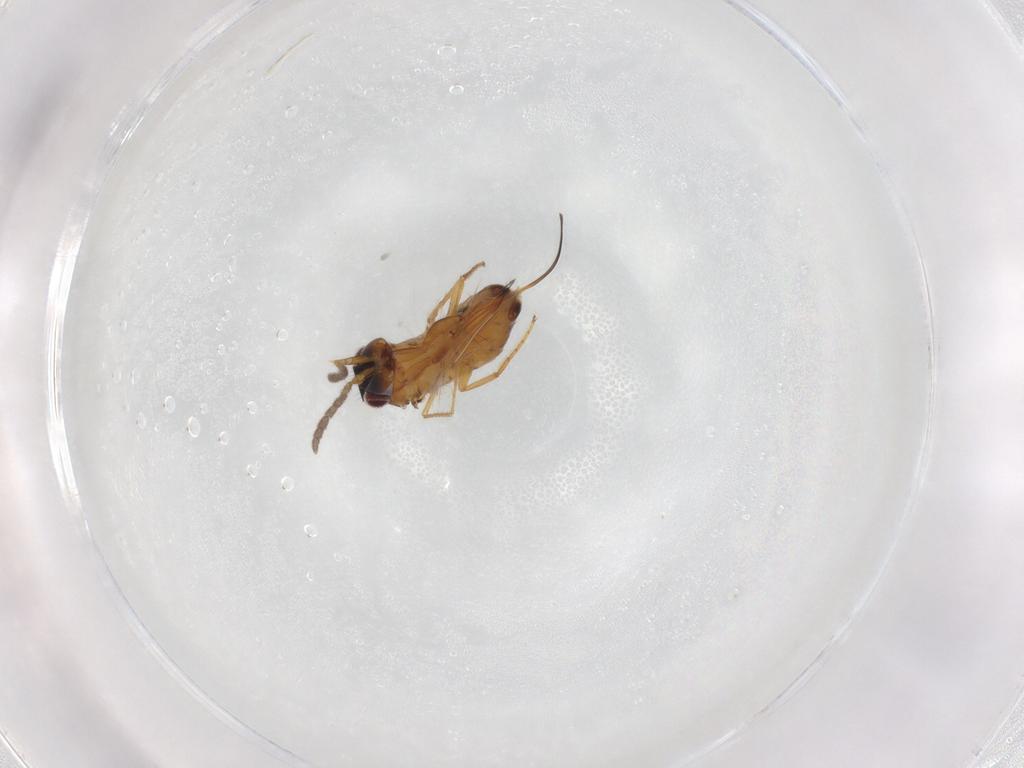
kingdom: Animalia
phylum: Arthropoda
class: Insecta
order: Hymenoptera
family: Agaonidae
